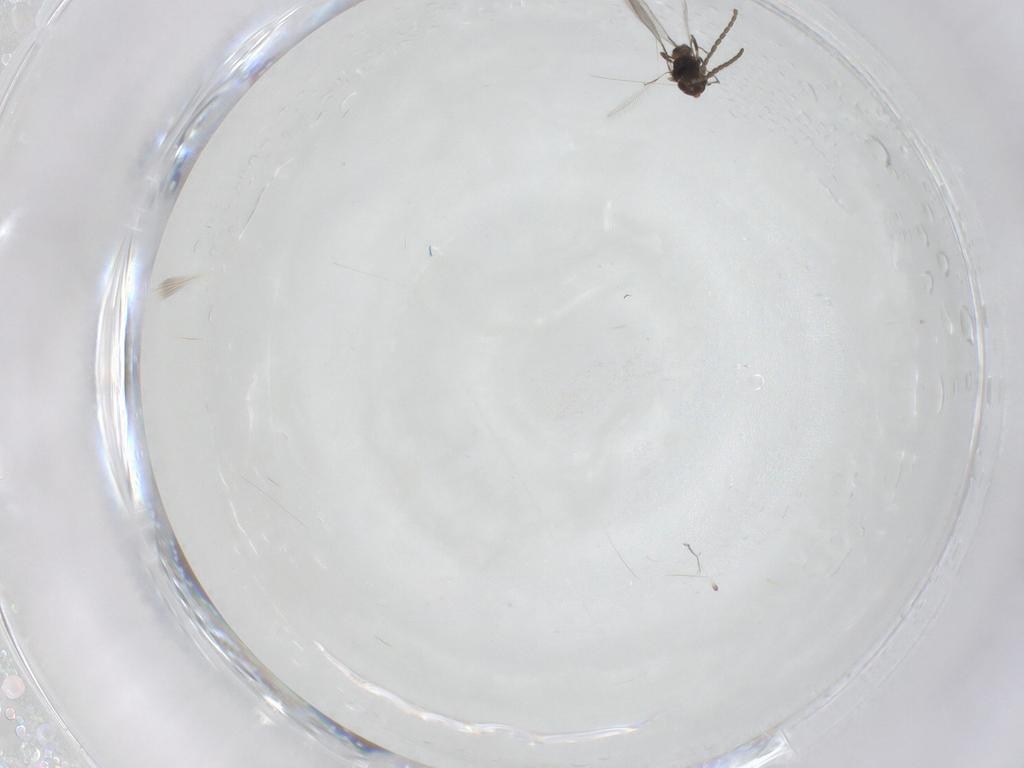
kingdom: Animalia
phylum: Arthropoda
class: Insecta
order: Hymenoptera
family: Mymaridae
